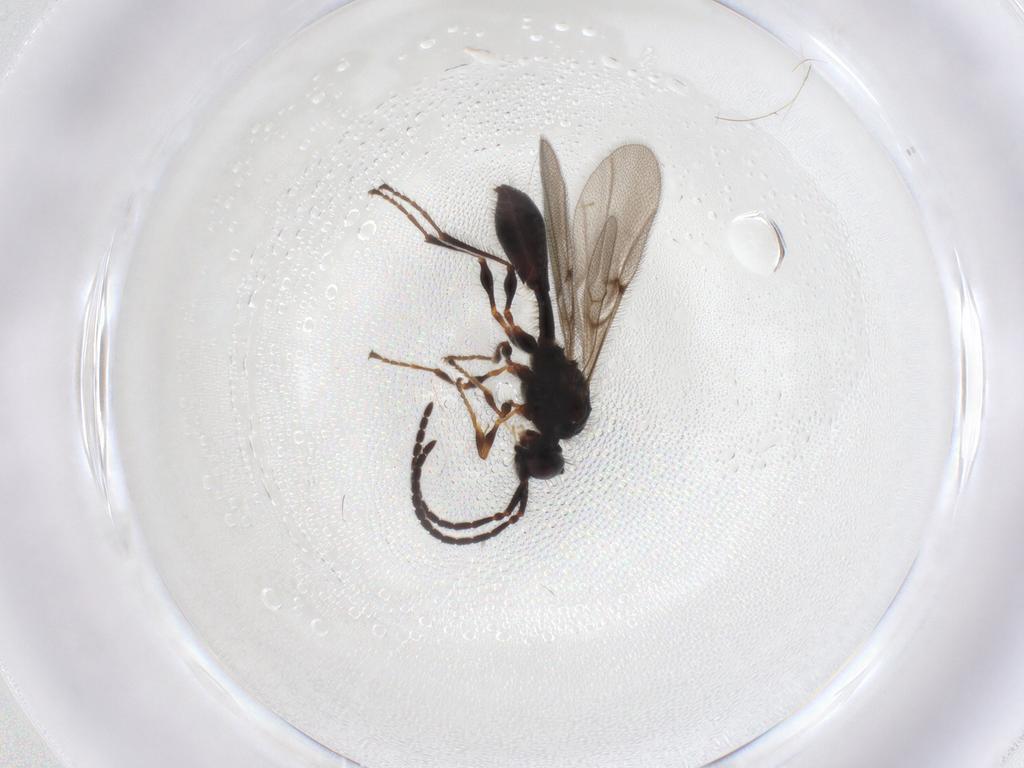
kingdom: Animalia
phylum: Arthropoda
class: Insecta
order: Hymenoptera
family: Diapriidae
